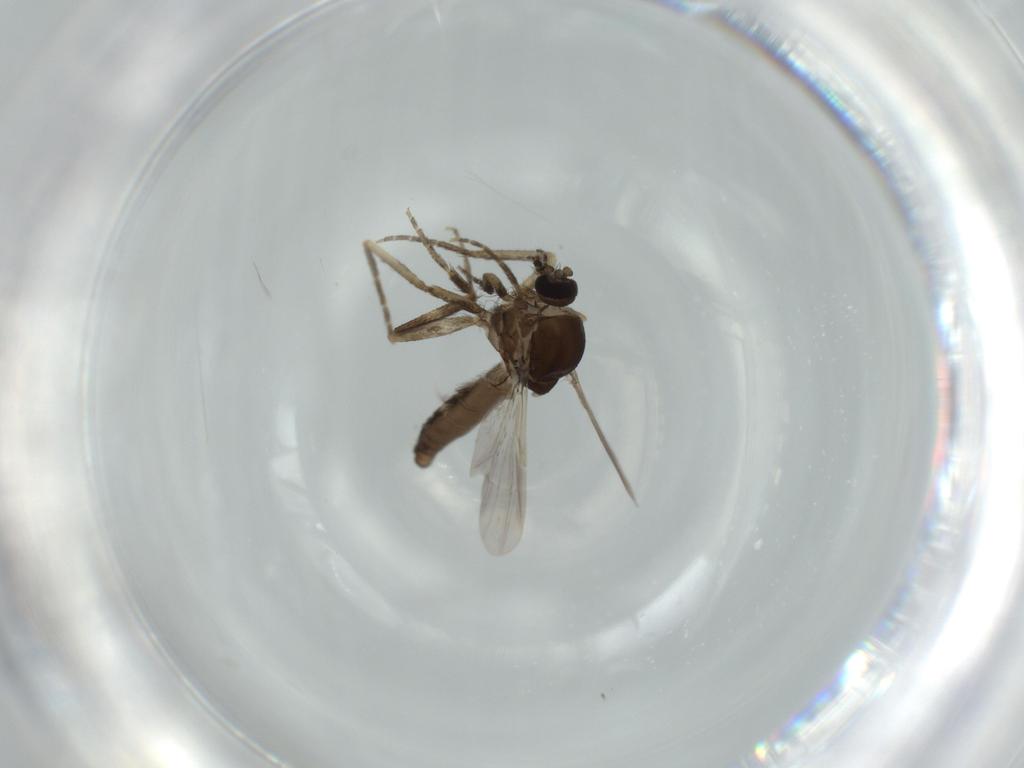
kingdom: Animalia
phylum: Arthropoda
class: Insecta
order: Diptera
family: Ceratopogonidae
